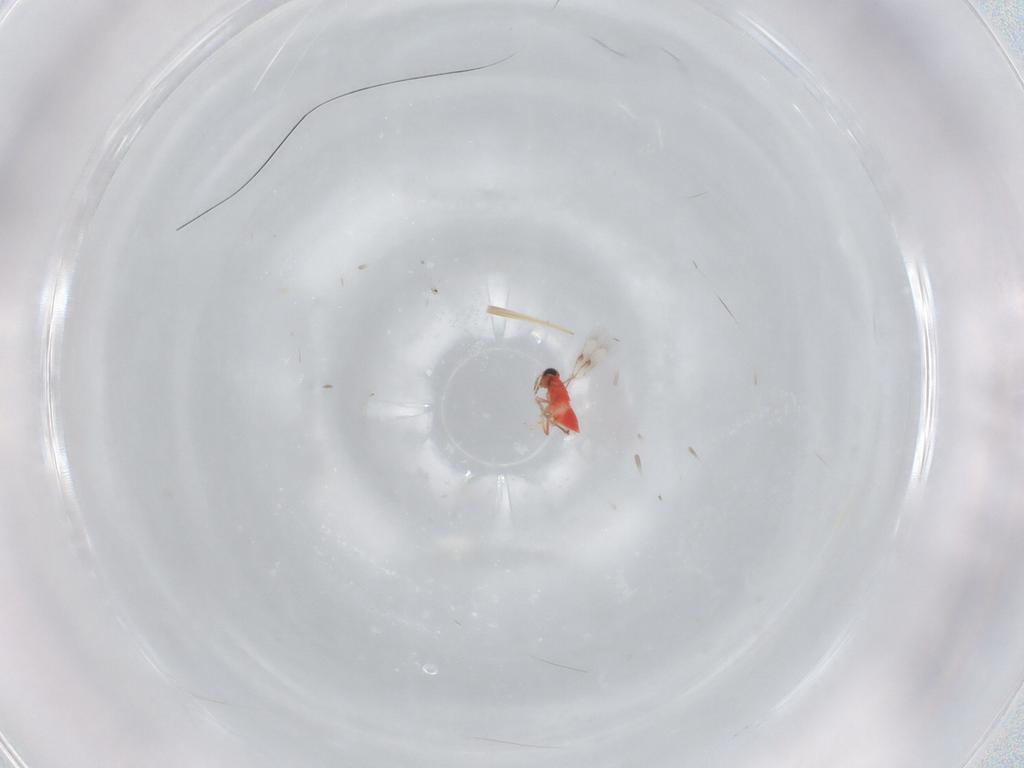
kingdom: Animalia
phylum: Arthropoda
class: Insecta
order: Hymenoptera
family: Trichogrammatidae
